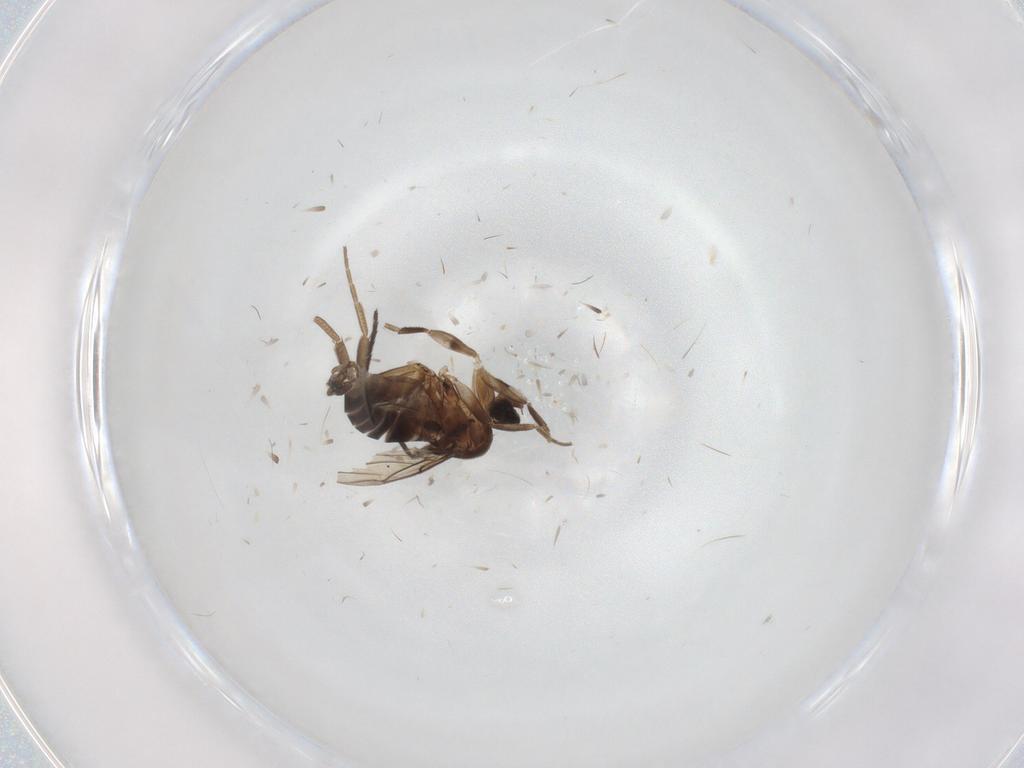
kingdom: Animalia
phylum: Arthropoda
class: Insecta
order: Diptera
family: Phoridae
